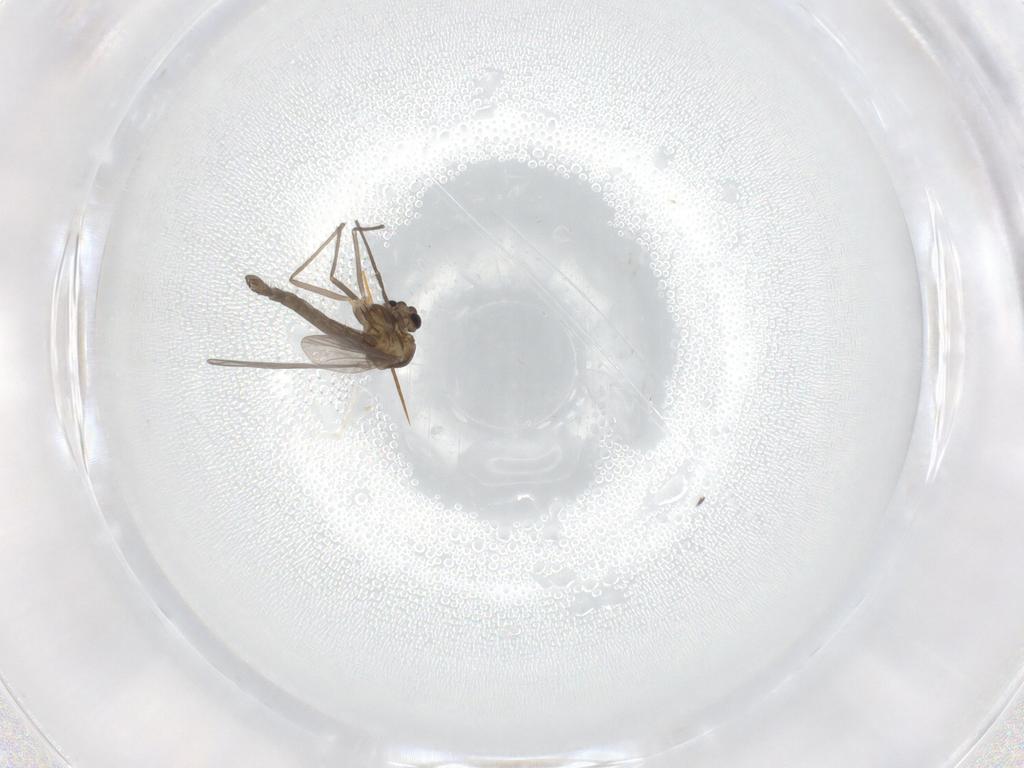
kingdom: Animalia
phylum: Arthropoda
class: Insecta
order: Diptera
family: Chironomidae
